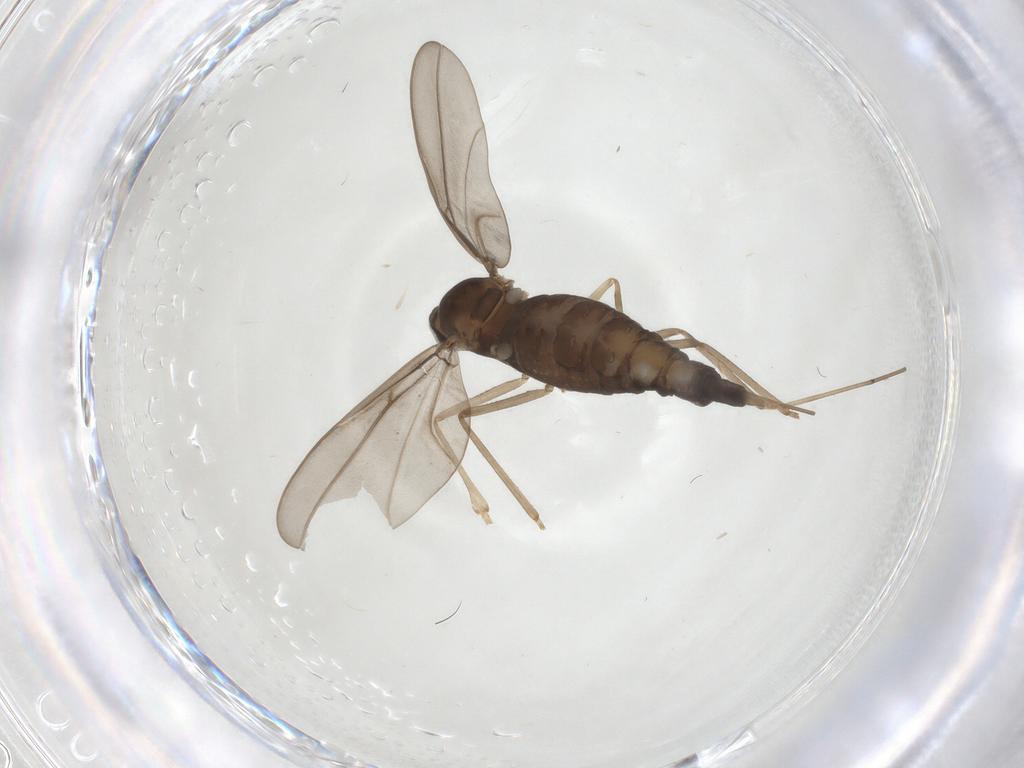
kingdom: Animalia
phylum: Arthropoda
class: Insecta
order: Diptera
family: Cecidomyiidae
